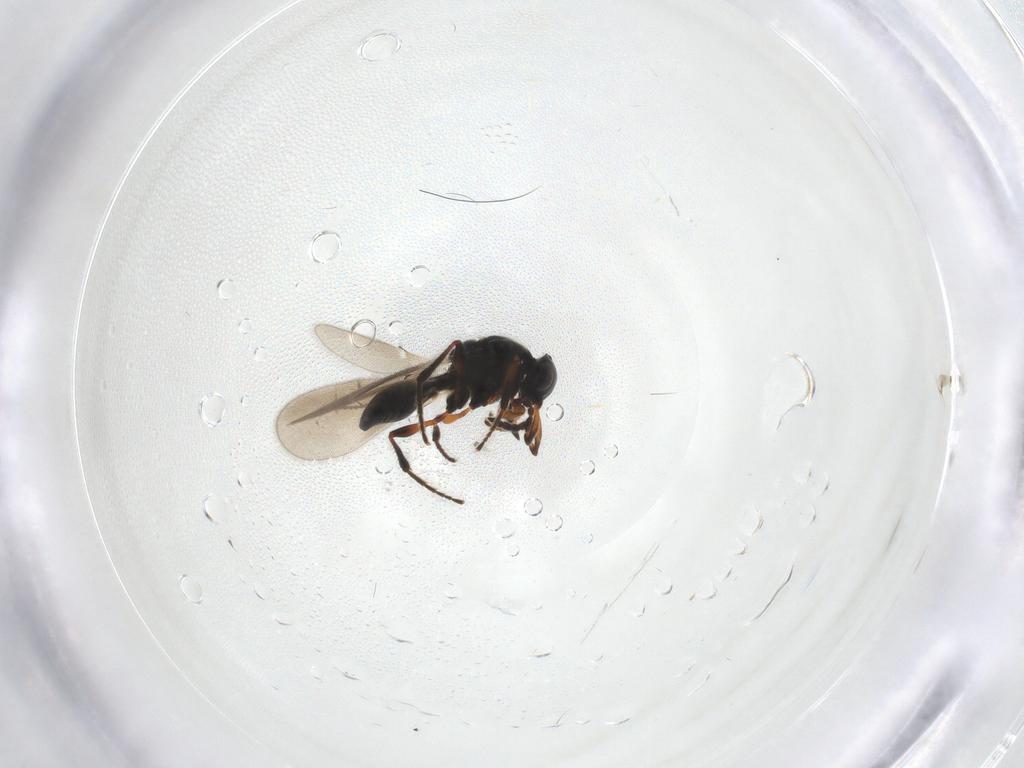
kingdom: Animalia
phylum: Arthropoda
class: Insecta
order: Hymenoptera
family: Platygastridae
